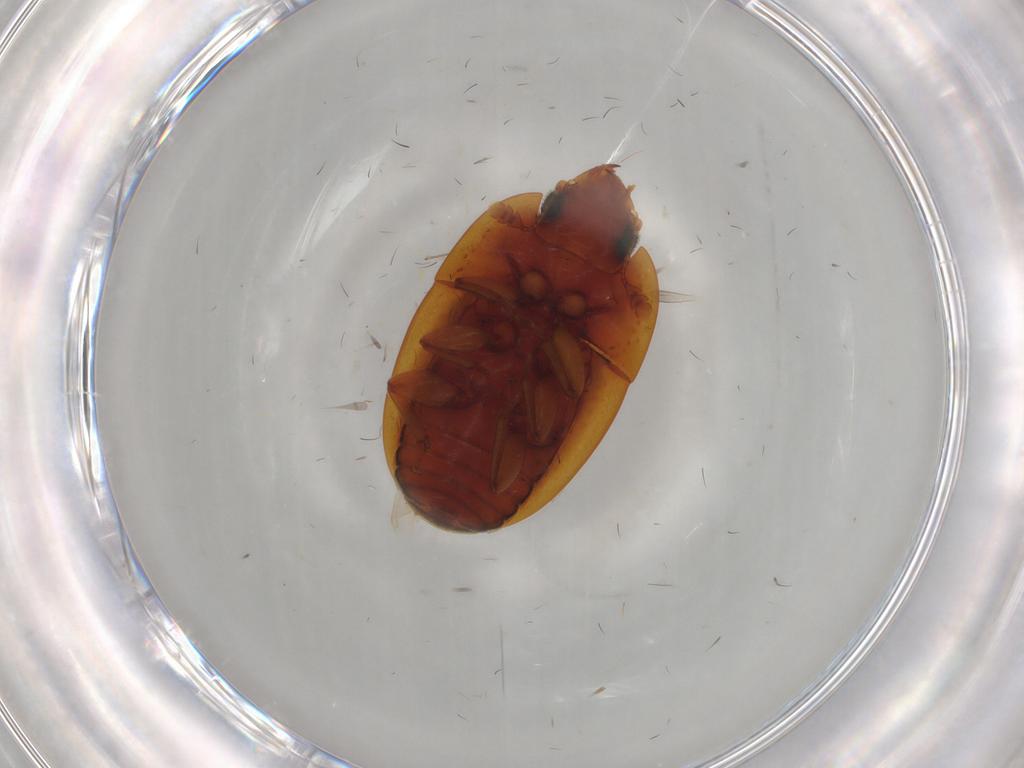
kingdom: Animalia
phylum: Arthropoda
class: Insecta
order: Coleoptera
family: Nitidulidae
